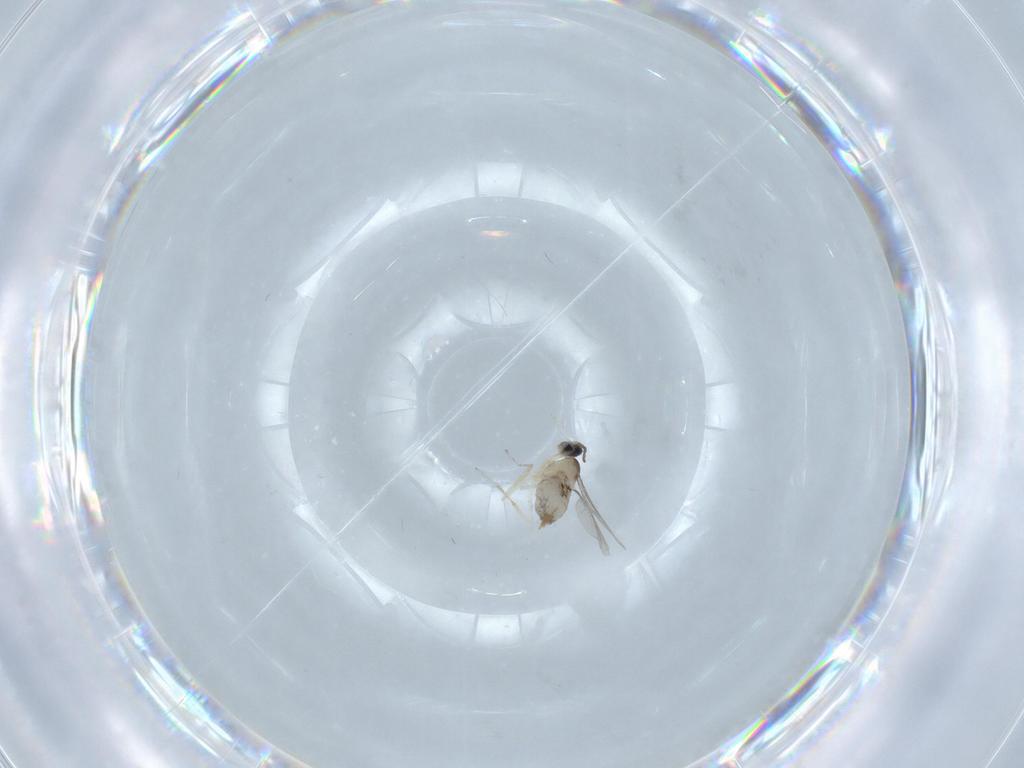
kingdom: Animalia
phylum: Arthropoda
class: Insecta
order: Diptera
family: Cecidomyiidae
